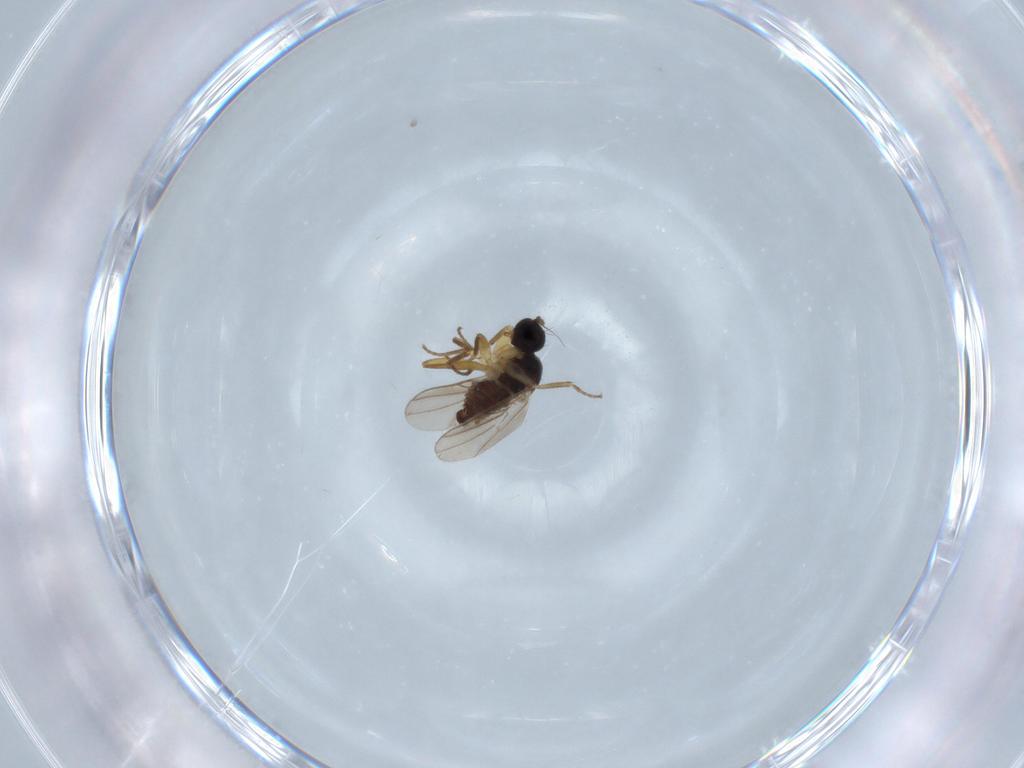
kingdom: Animalia
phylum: Arthropoda
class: Insecta
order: Diptera
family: Hybotidae
